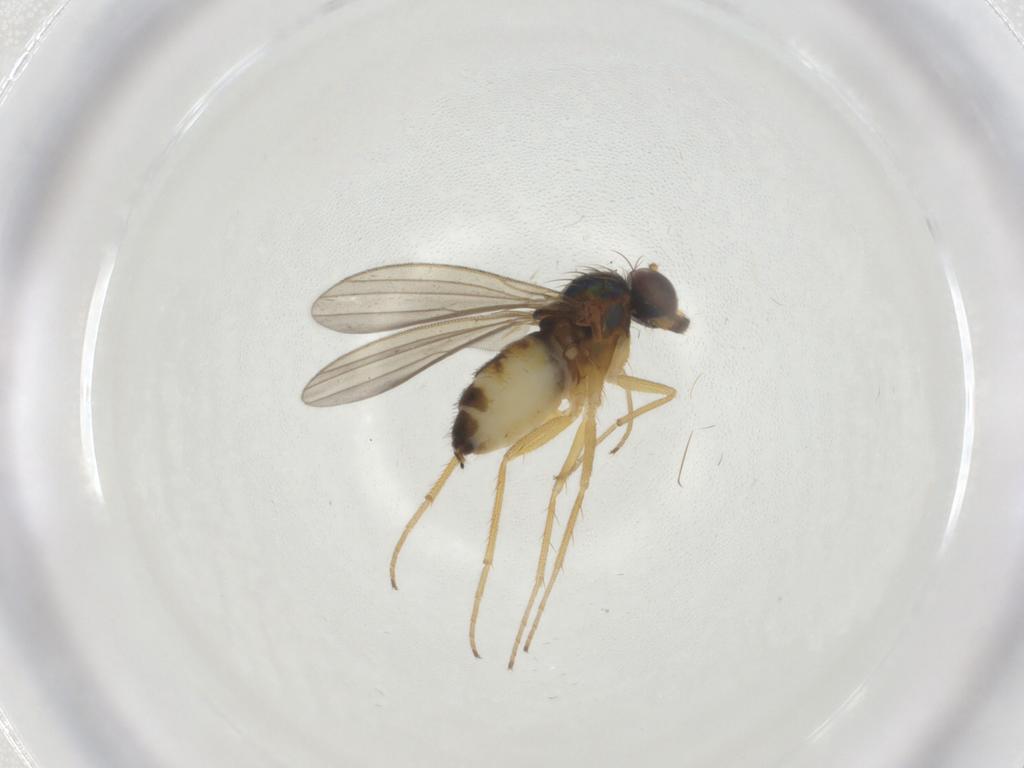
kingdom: Animalia
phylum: Arthropoda
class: Insecta
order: Diptera
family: Dolichopodidae
